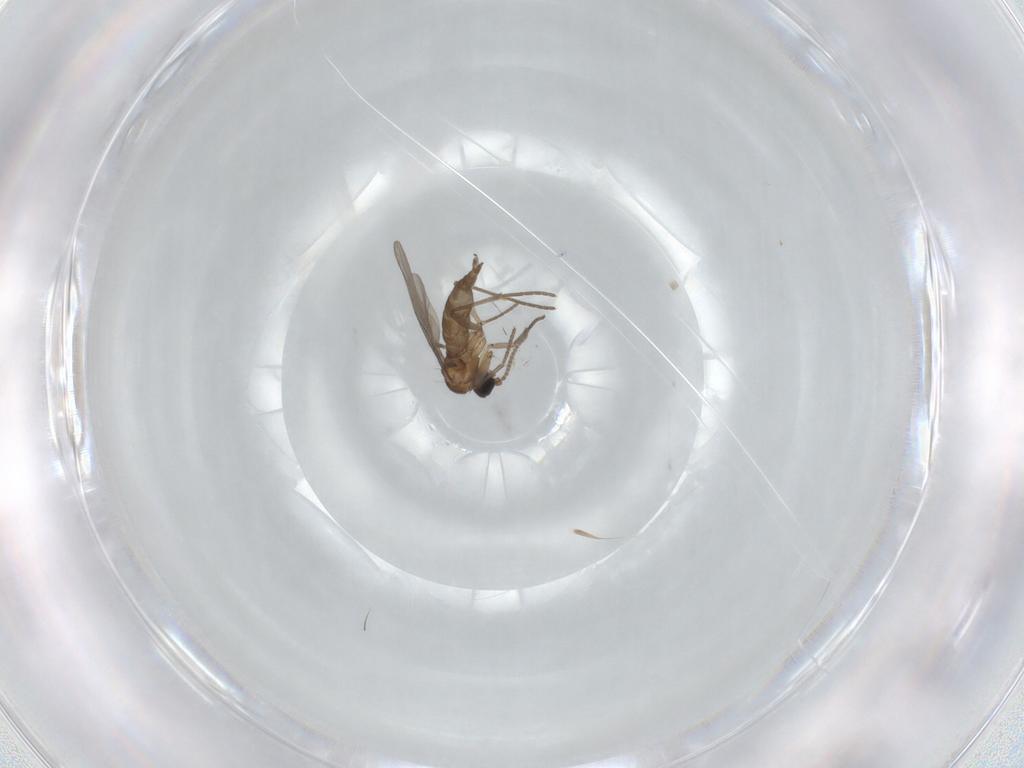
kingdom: Animalia
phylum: Arthropoda
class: Insecta
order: Diptera
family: Sciaridae
